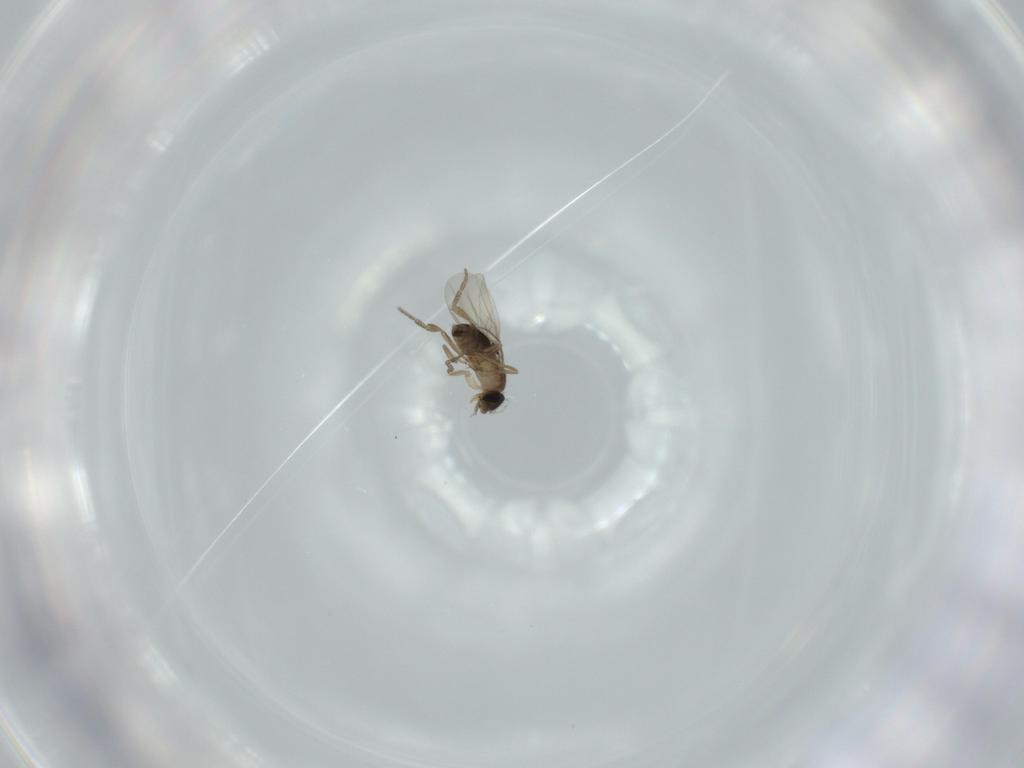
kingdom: Animalia
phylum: Arthropoda
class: Insecta
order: Diptera
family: Phoridae
